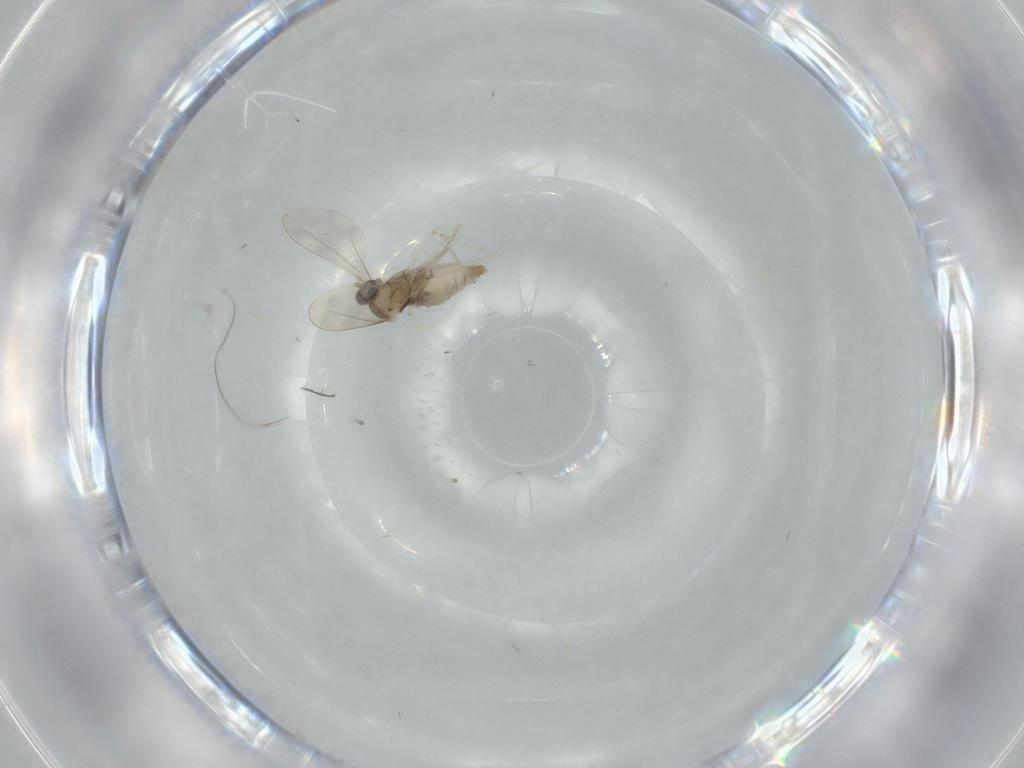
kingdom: Animalia
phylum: Arthropoda
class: Insecta
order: Diptera
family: Cecidomyiidae
